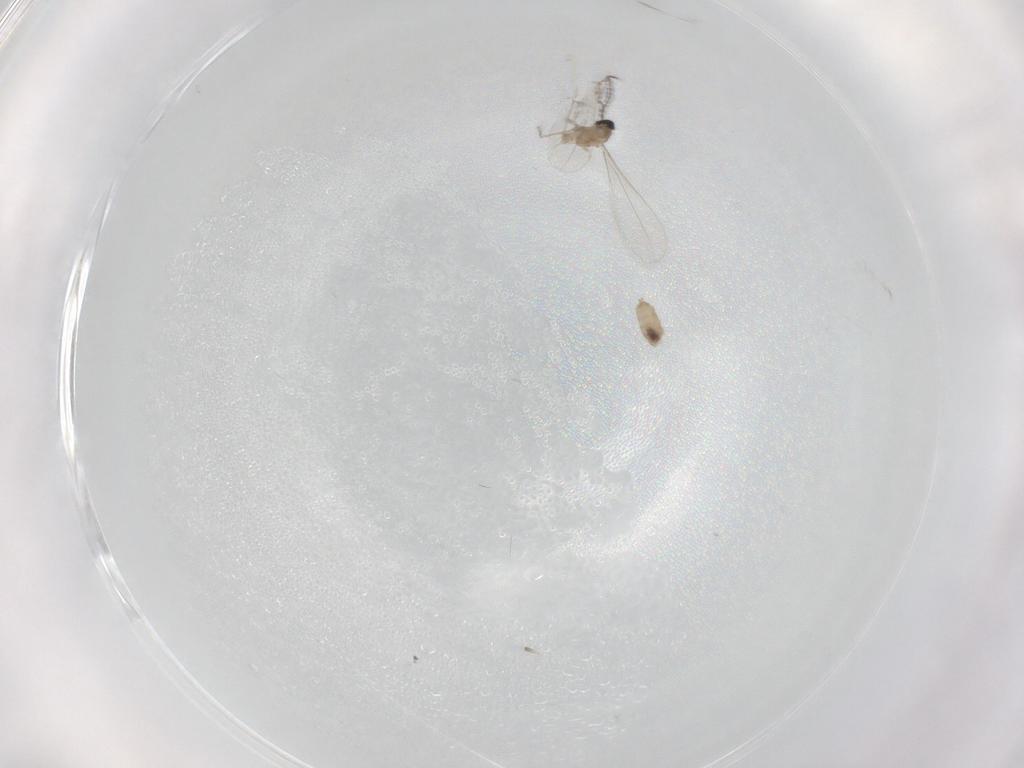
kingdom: Animalia
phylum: Arthropoda
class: Insecta
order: Diptera
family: Cecidomyiidae
